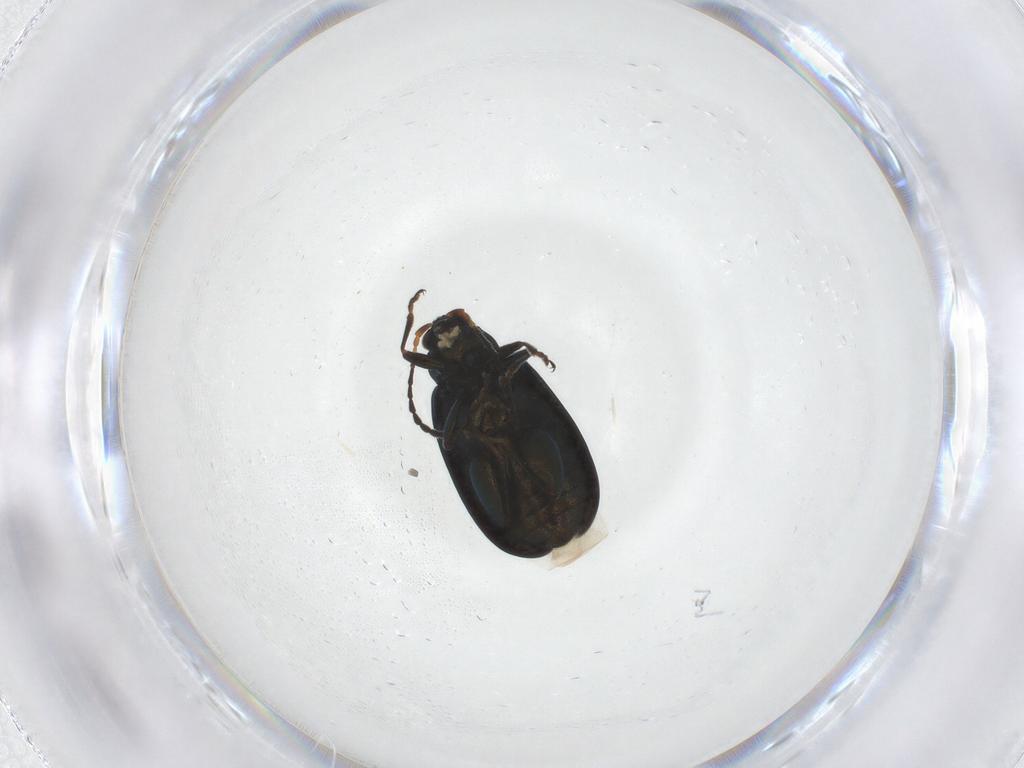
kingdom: Animalia
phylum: Arthropoda
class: Insecta
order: Coleoptera
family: Chrysomelidae
